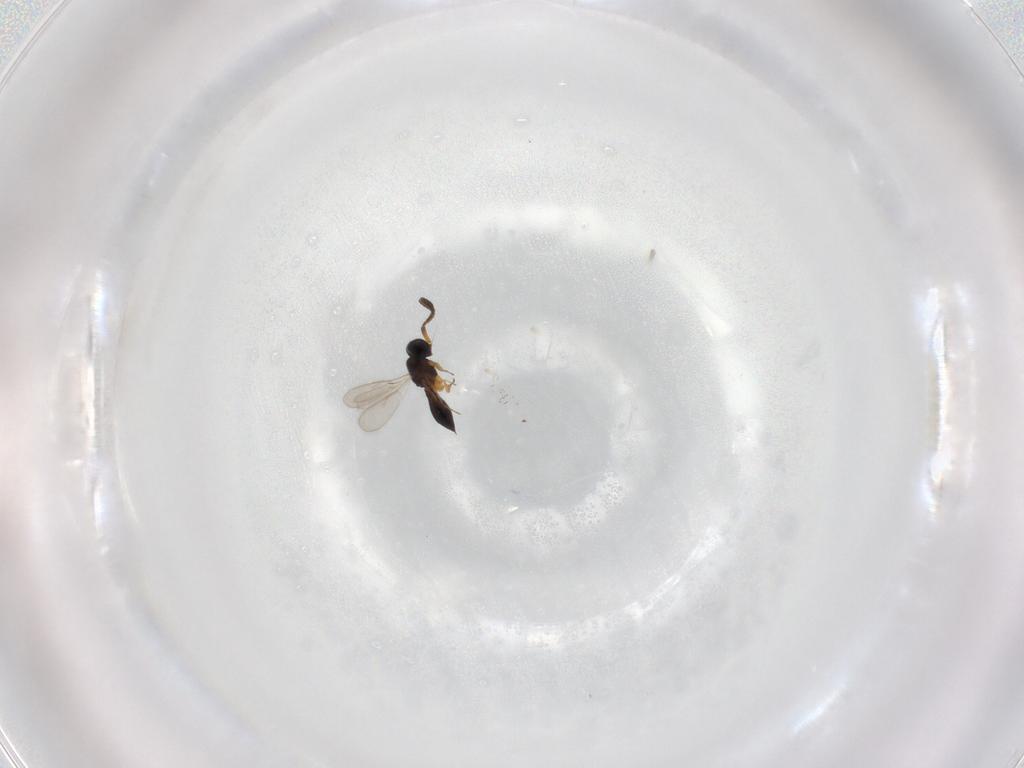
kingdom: Animalia
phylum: Arthropoda
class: Insecta
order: Hymenoptera
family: Scelionidae
